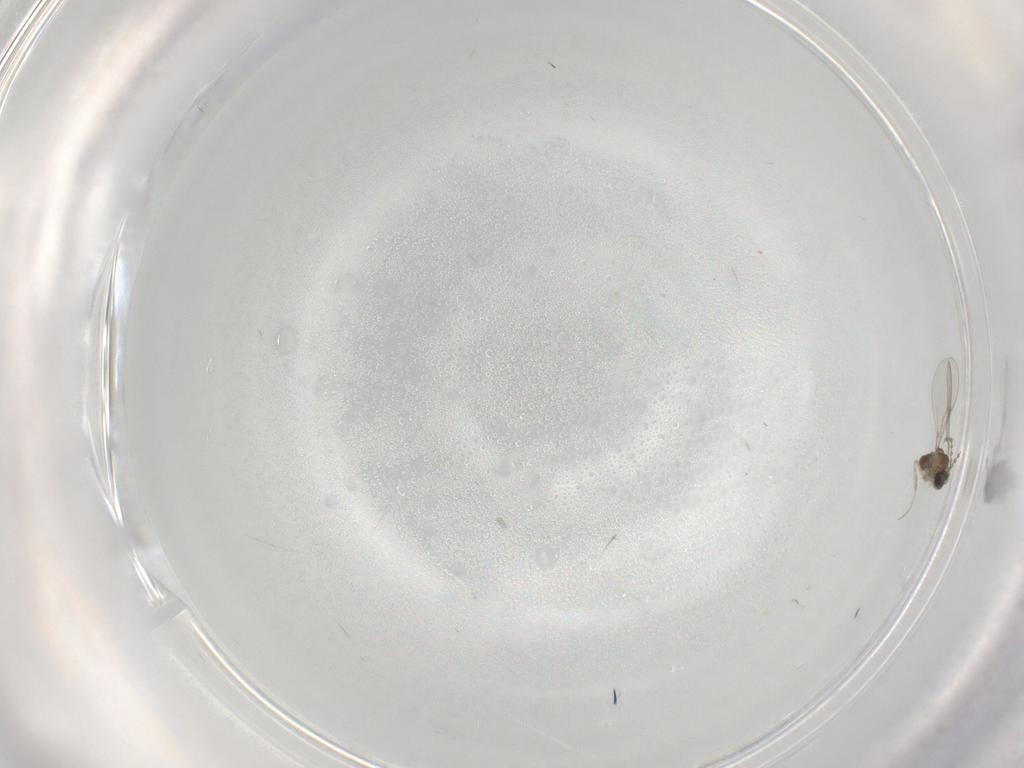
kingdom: Animalia
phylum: Arthropoda
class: Insecta
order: Diptera
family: Cecidomyiidae
